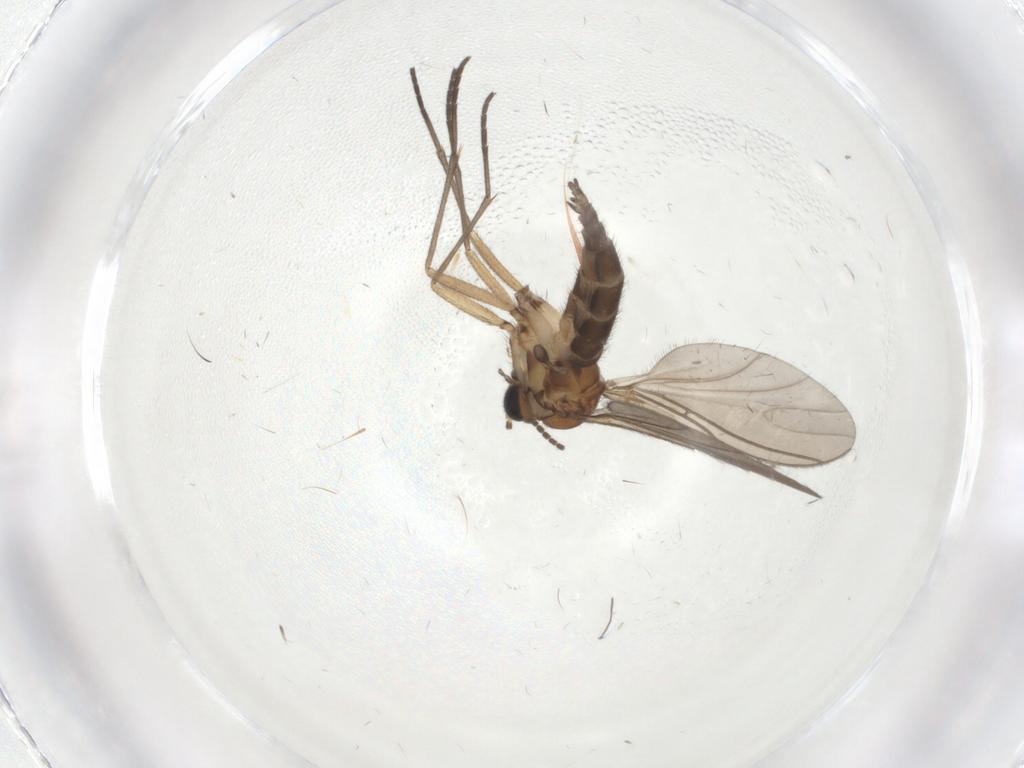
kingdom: Animalia
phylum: Arthropoda
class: Insecta
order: Diptera
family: Sciaridae
